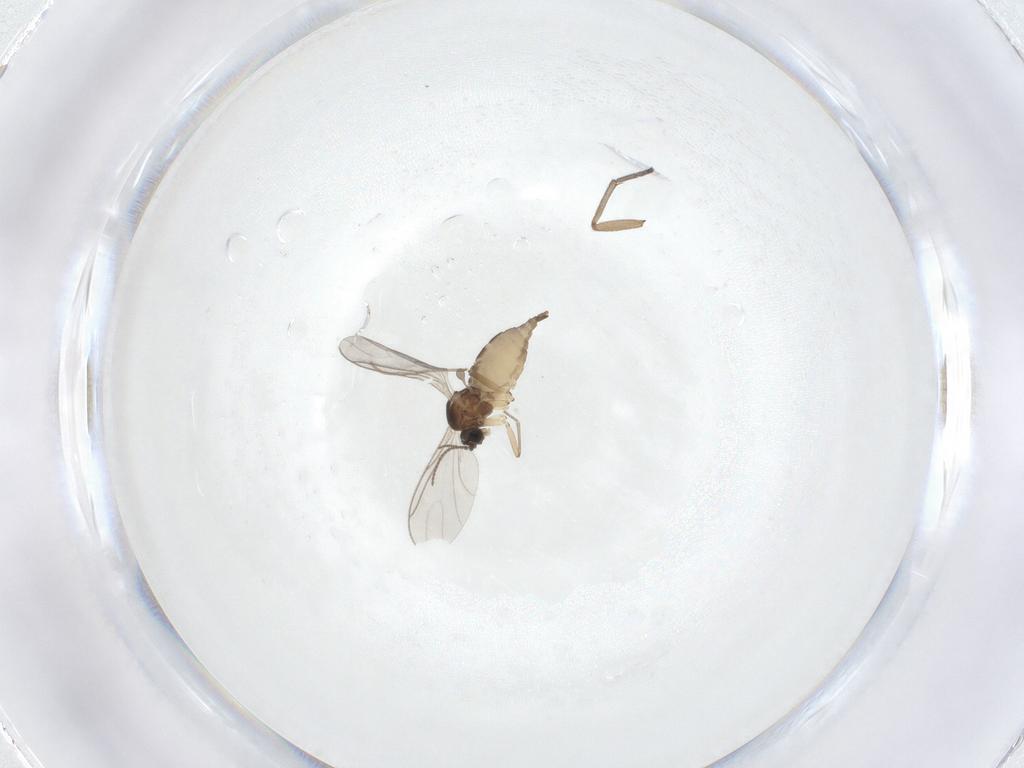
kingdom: Animalia
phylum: Arthropoda
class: Insecta
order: Diptera
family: Sciaridae
